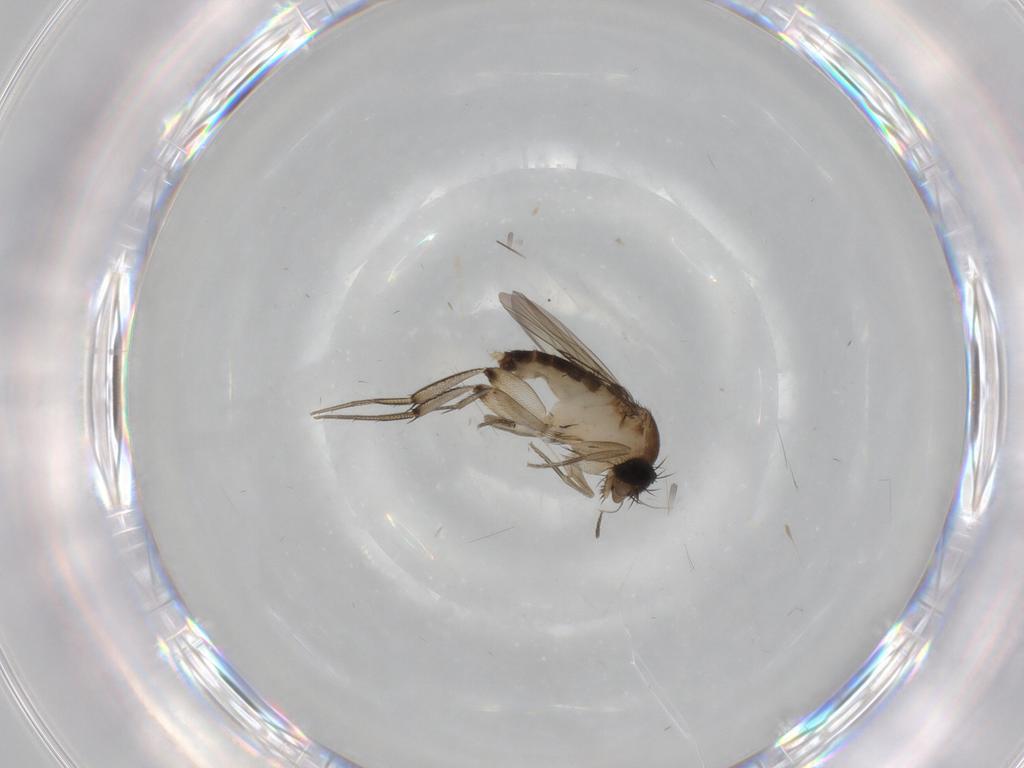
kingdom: Animalia
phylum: Arthropoda
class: Insecta
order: Diptera
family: Phoridae
